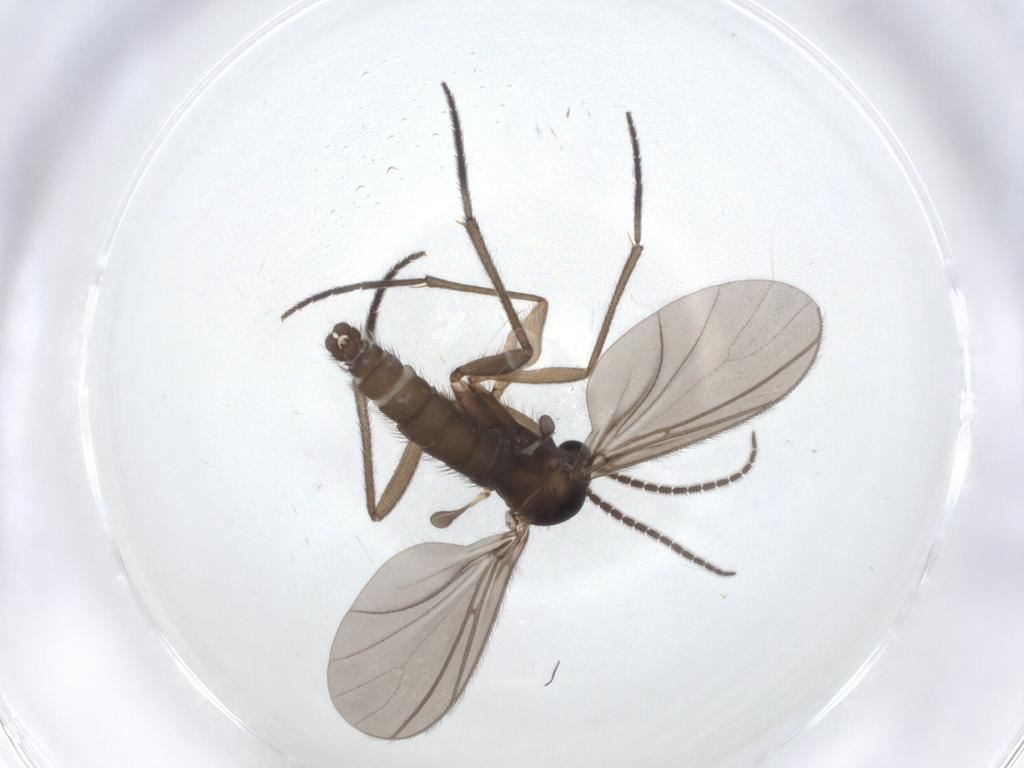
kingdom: Animalia
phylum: Arthropoda
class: Insecta
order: Diptera
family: Sciaridae
